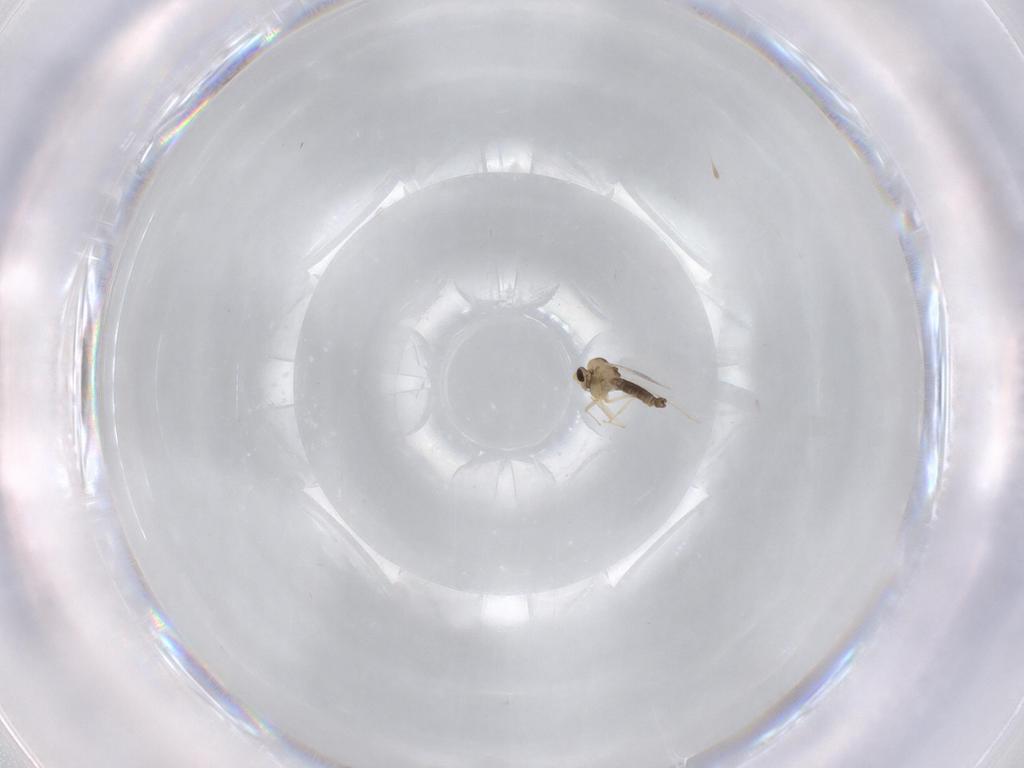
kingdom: Animalia
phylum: Arthropoda
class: Insecta
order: Diptera
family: Chironomidae
